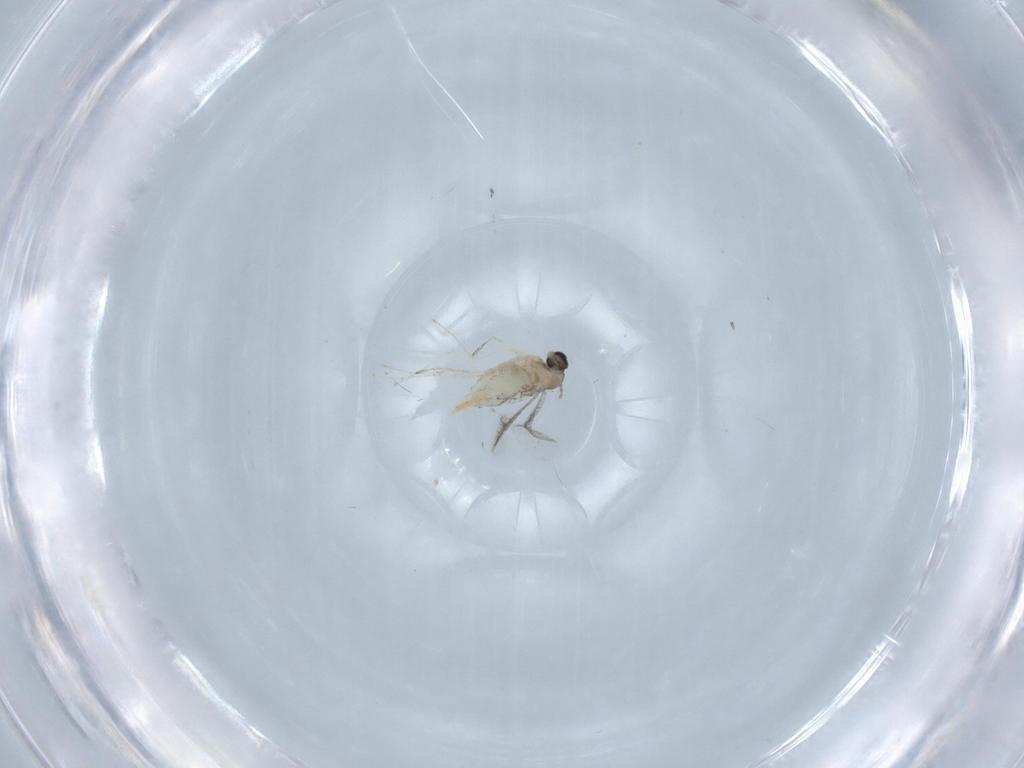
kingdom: Animalia
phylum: Arthropoda
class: Insecta
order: Diptera
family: Cecidomyiidae
